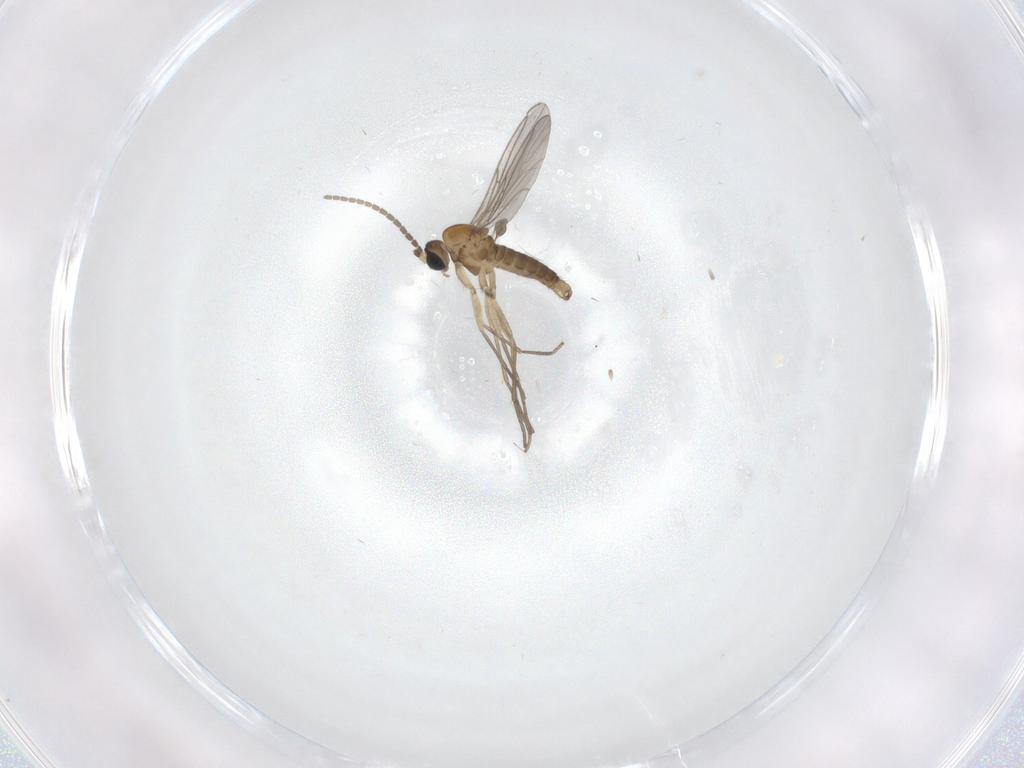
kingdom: Animalia
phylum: Arthropoda
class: Insecta
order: Diptera
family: Sciaridae
